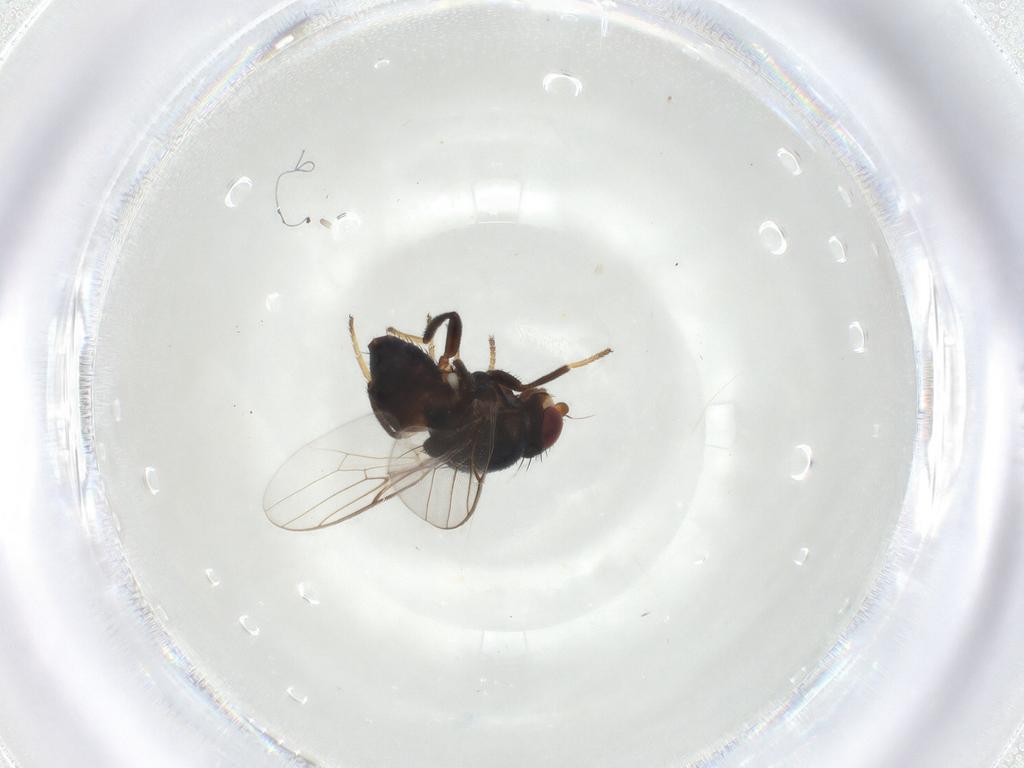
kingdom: Animalia
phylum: Arthropoda
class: Insecta
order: Diptera
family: Chloropidae
